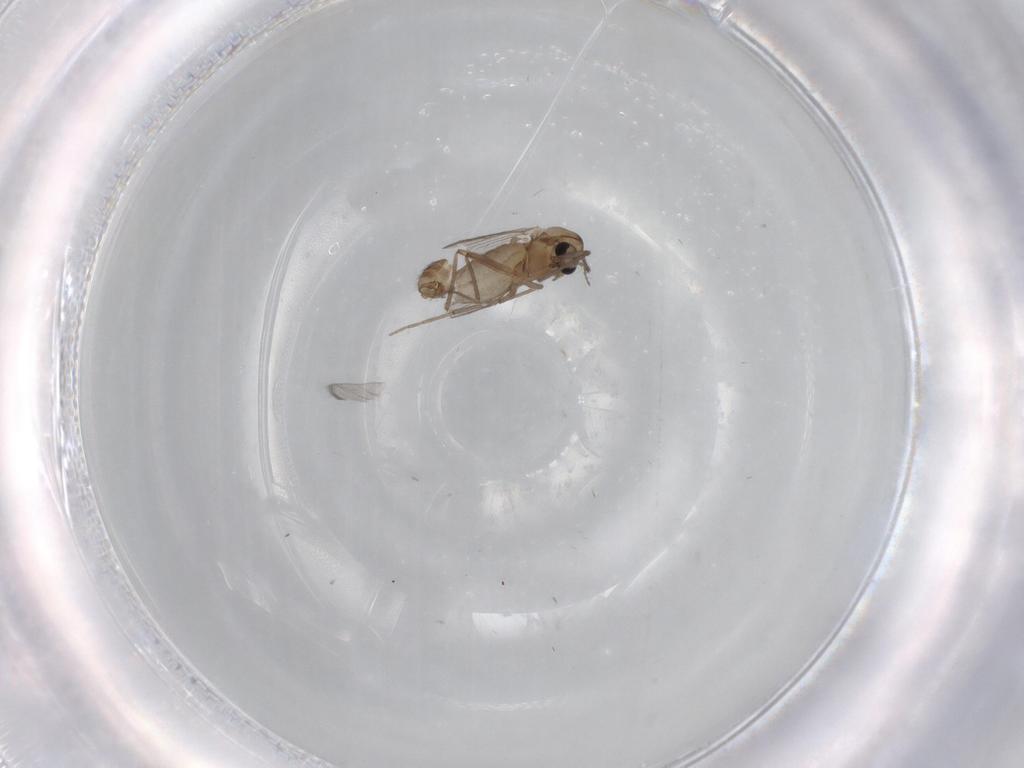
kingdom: Animalia
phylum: Arthropoda
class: Insecta
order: Diptera
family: Chironomidae
